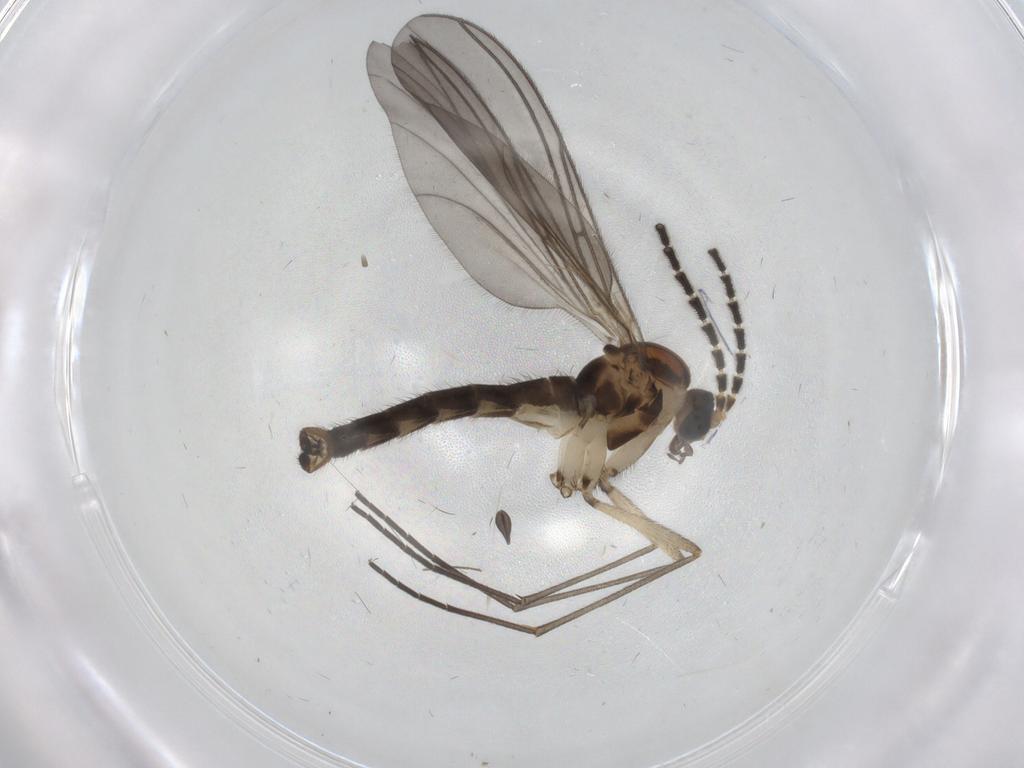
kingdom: Animalia
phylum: Arthropoda
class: Insecta
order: Diptera
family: Sciaridae
